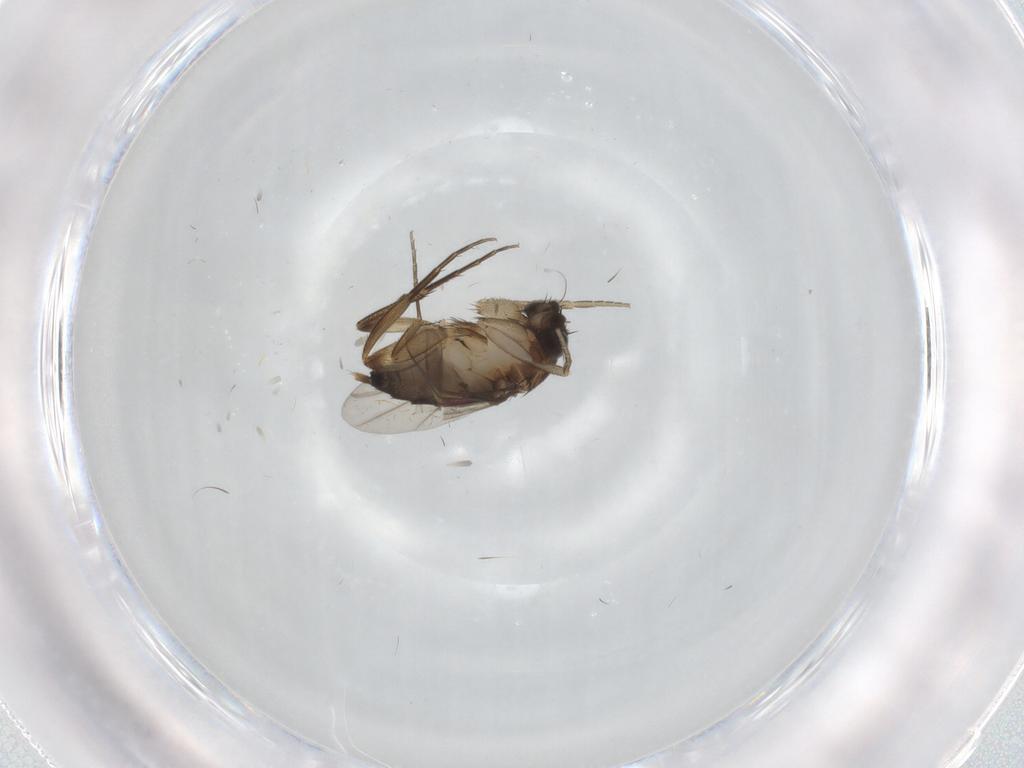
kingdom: Animalia
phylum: Arthropoda
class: Insecta
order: Diptera
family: Phoridae
